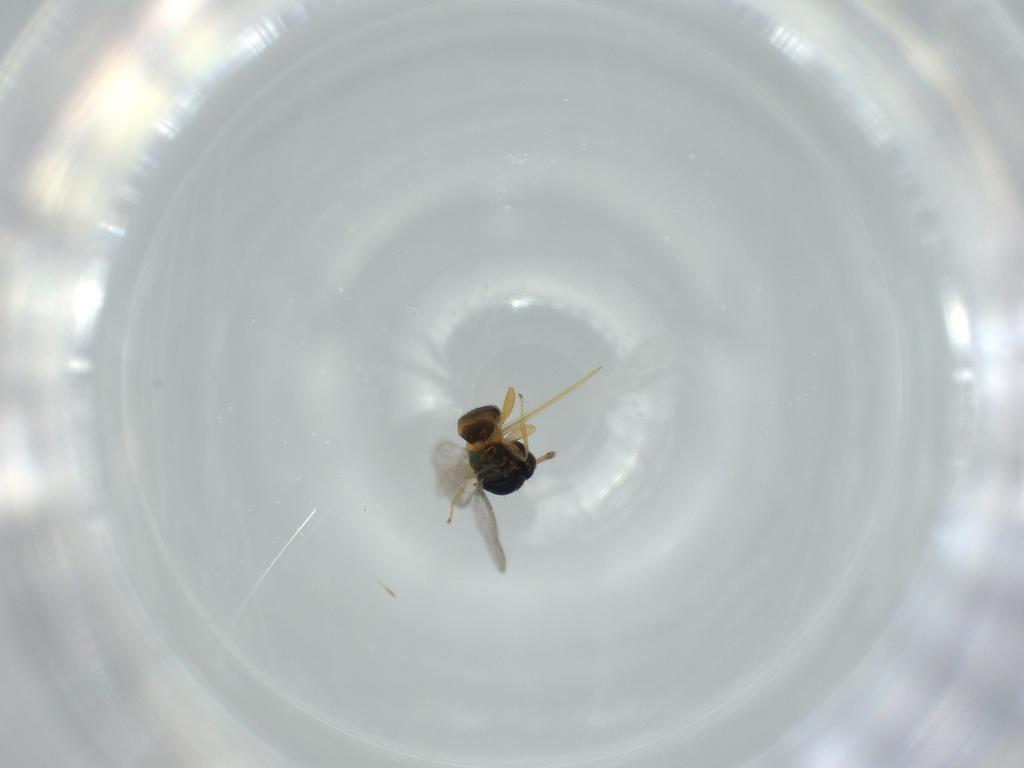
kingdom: Animalia
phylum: Arthropoda
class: Insecta
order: Hymenoptera
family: Torymidae
